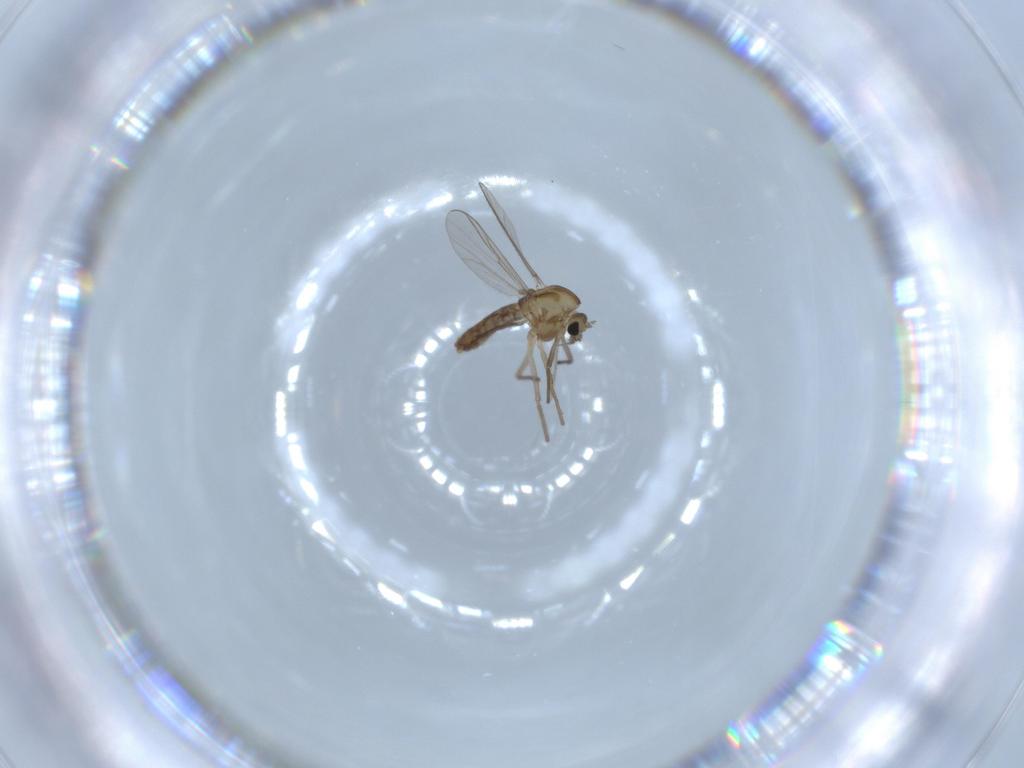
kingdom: Animalia
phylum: Arthropoda
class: Insecta
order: Diptera
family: Chironomidae
